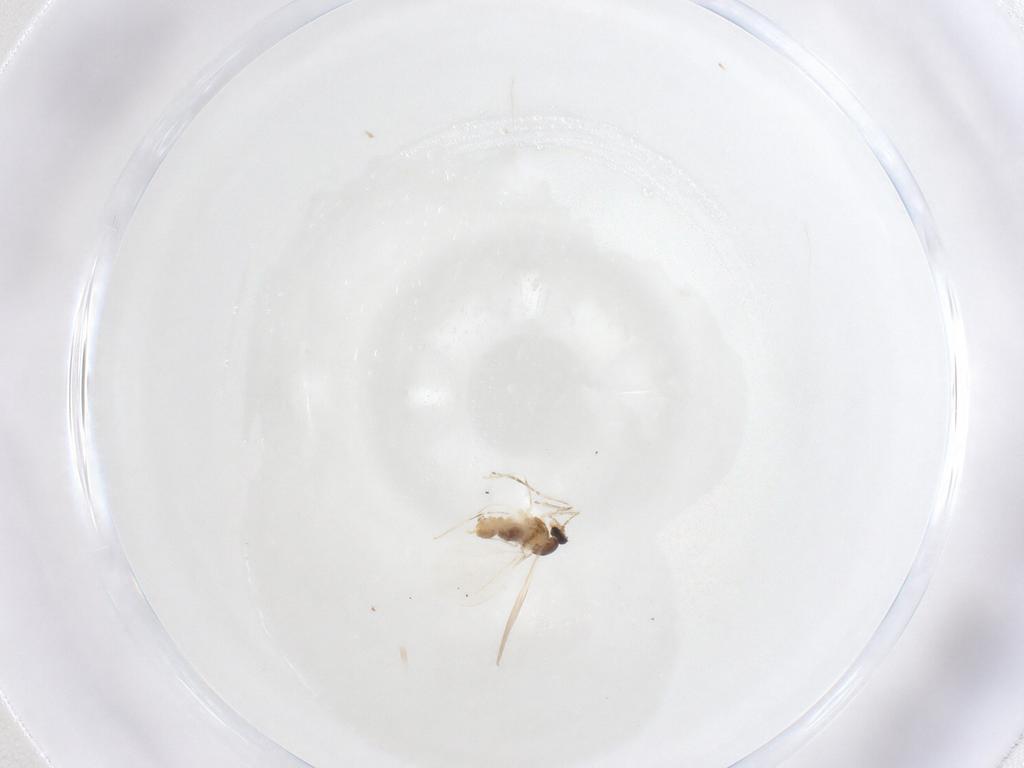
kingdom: Animalia
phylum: Arthropoda
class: Insecta
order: Diptera
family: Cecidomyiidae
